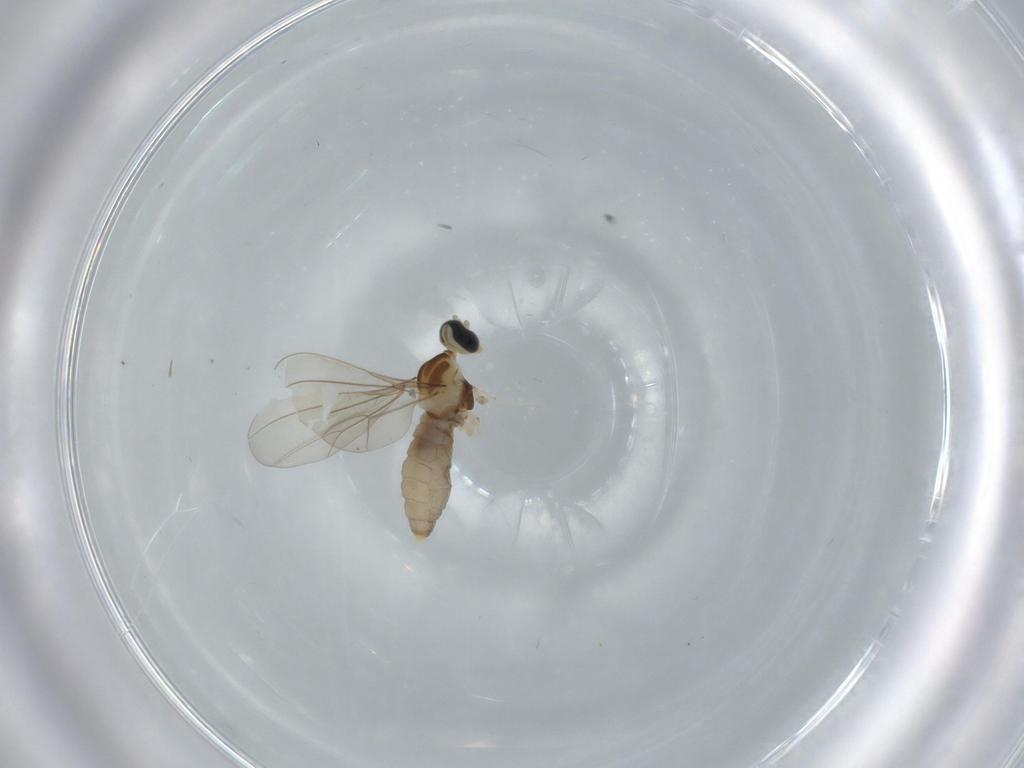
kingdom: Animalia
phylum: Arthropoda
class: Insecta
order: Diptera
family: Cecidomyiidae
